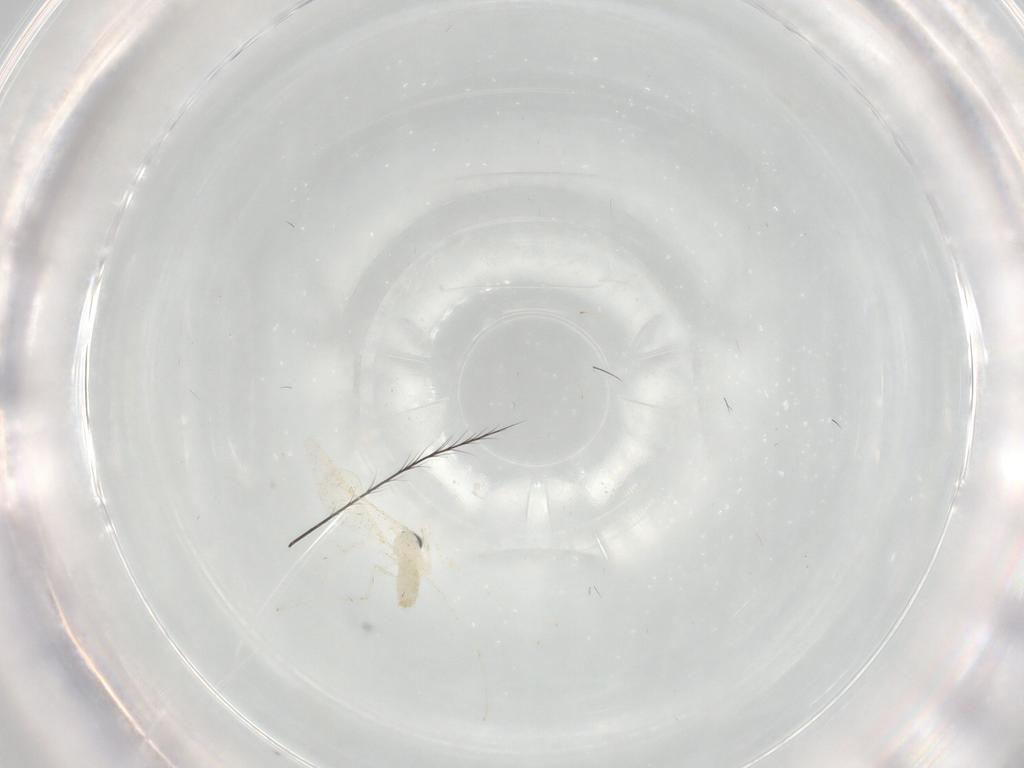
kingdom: Animalia
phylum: Arthropoda
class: Insecta
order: Diptera
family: Cecidomyiidae
